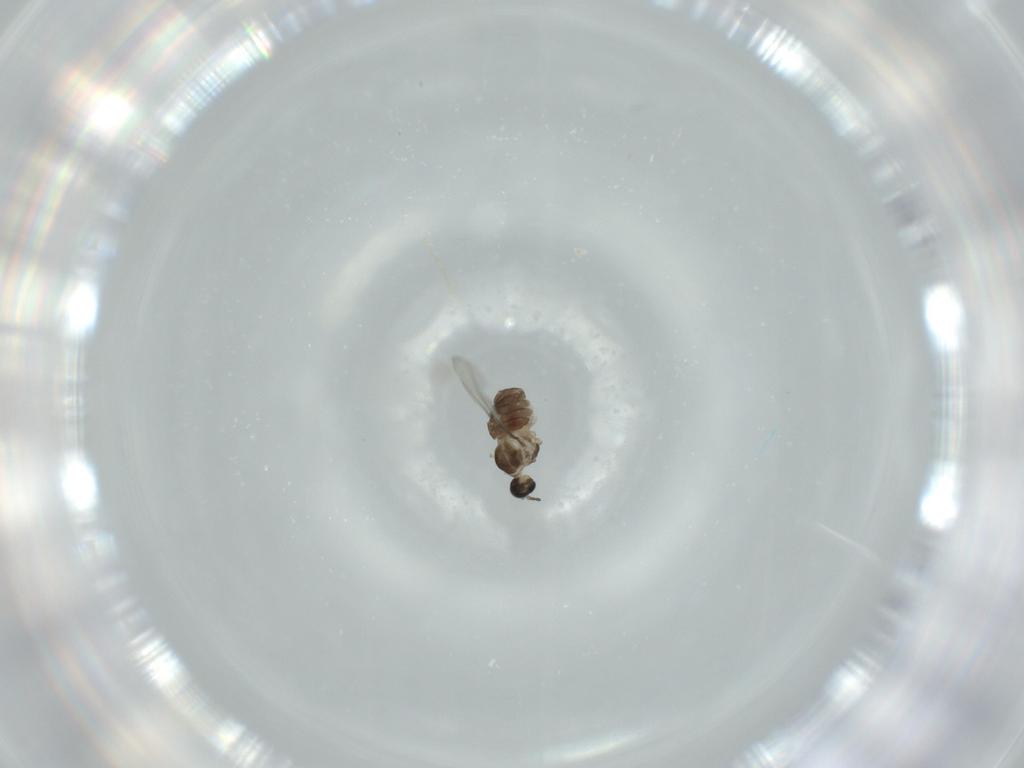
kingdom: Animalia
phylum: Arthropoda
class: Insecta
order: Diptera
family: Cecidomyiidae
